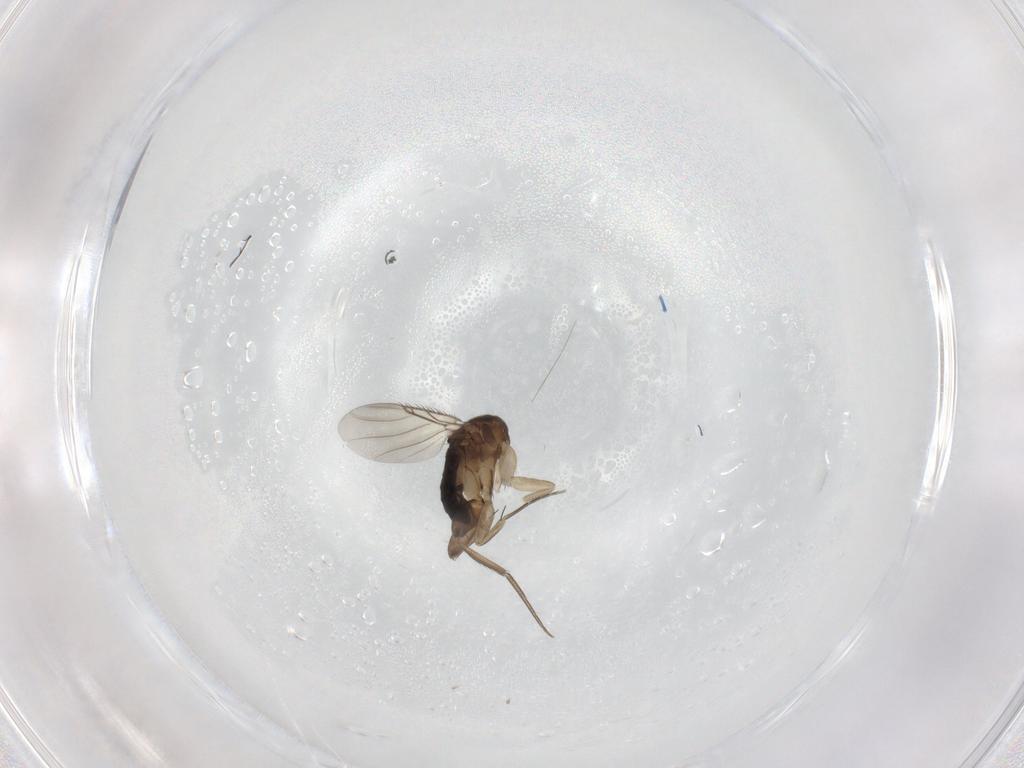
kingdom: Animalia
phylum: Arthropoda
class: Insecta
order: Diptera
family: Phoridae
